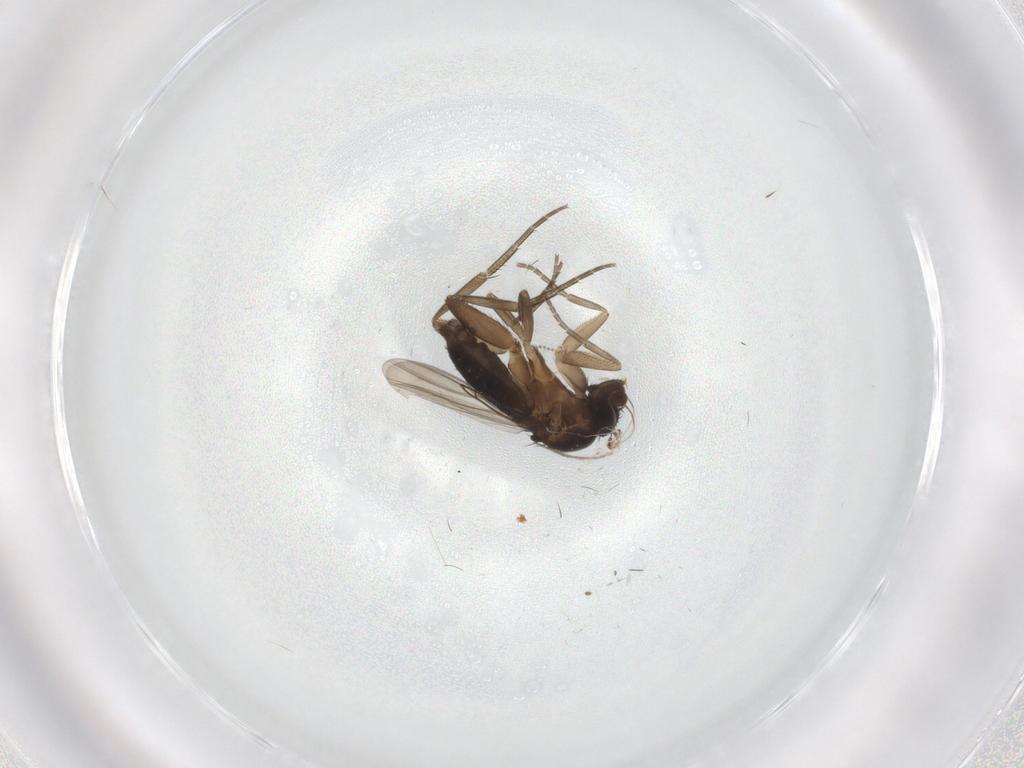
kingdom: Animalia
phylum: Arthropoda
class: Insecta
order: Diptera
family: Phoridae
